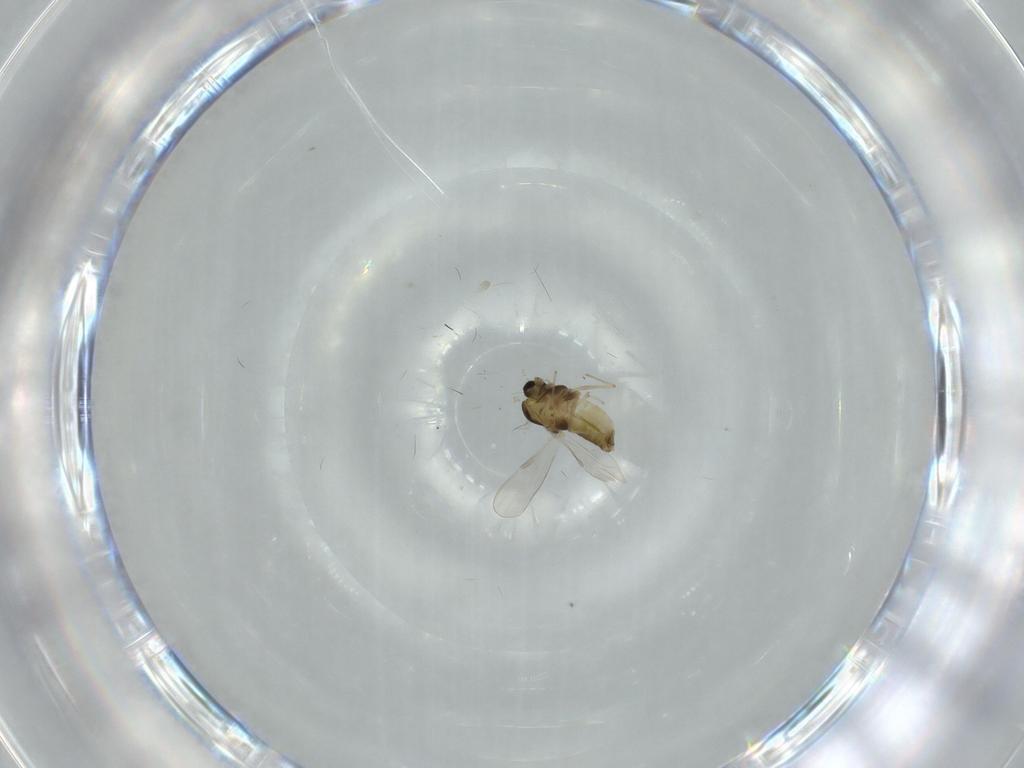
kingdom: Animalia
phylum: Arthropoda
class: Insecta
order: Diptera
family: Chironomidae
